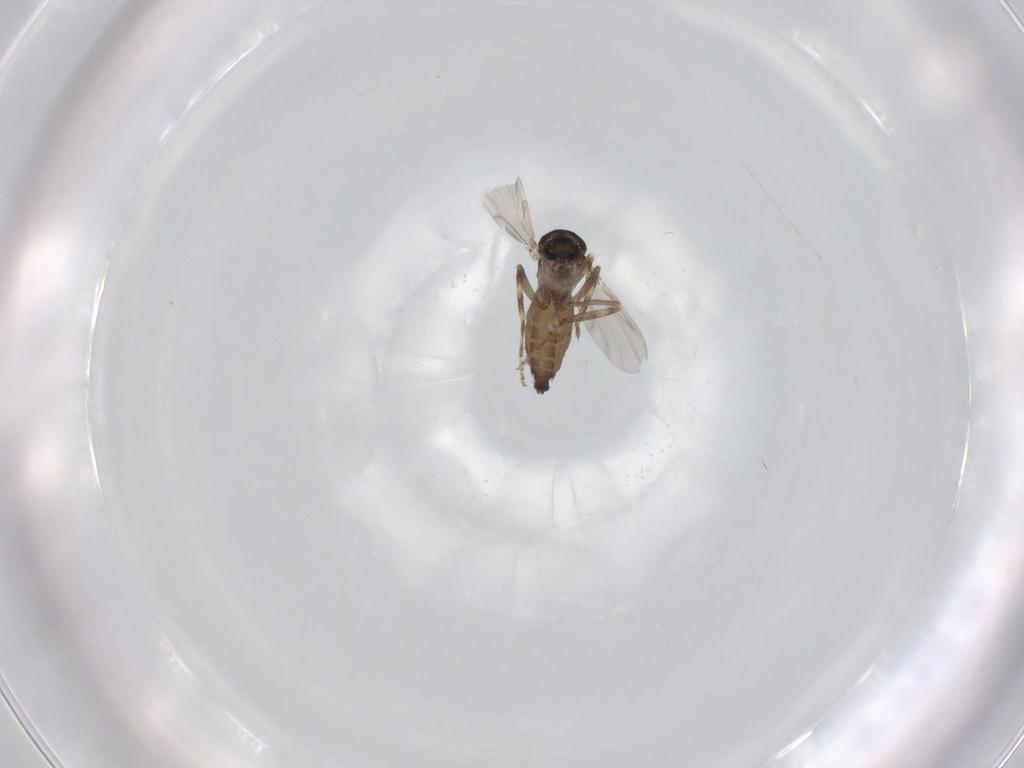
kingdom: Animalia
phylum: Arthropoda
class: Insecta
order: Diptera
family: Ceratopogonidae
